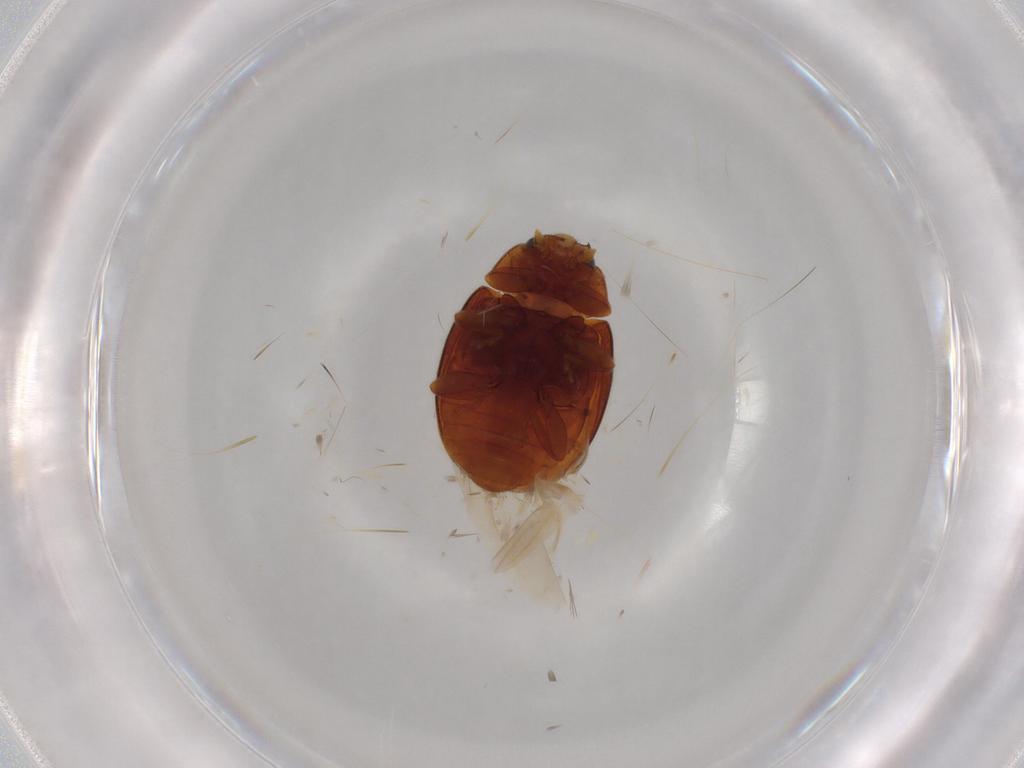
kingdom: Animalia
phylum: Arthropoda
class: Insecta
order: Coleoptera
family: Coccinellidae
